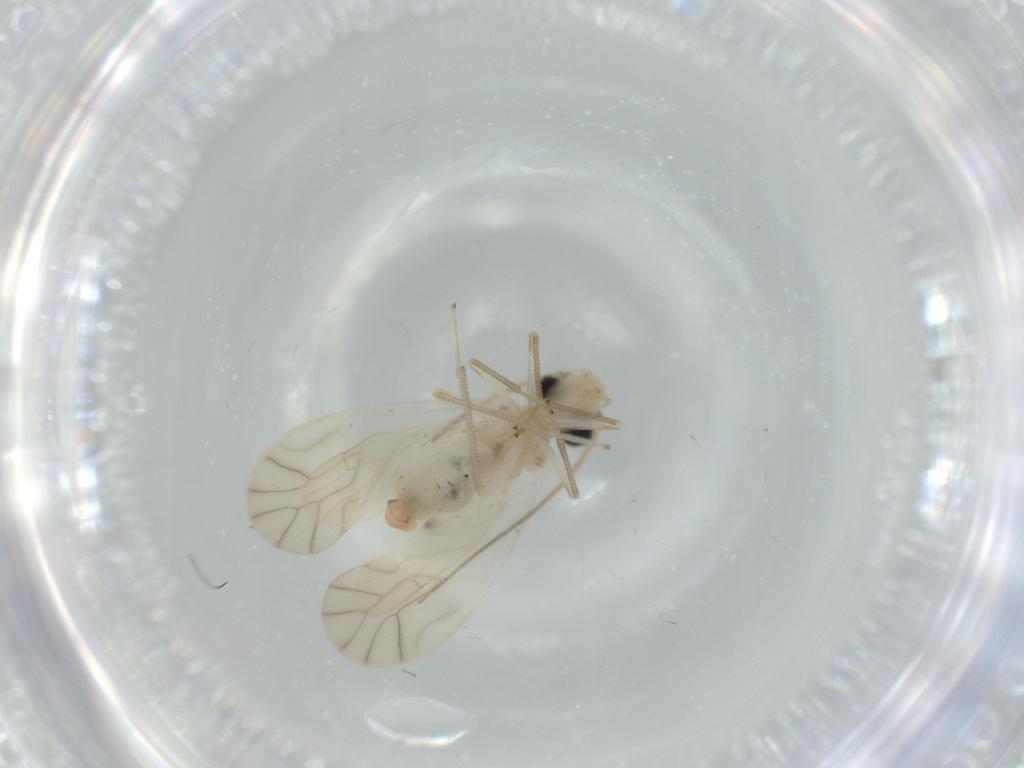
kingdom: Animalia
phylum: Arthropoda
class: Insecta
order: Psocodea
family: Caeciliusidae
